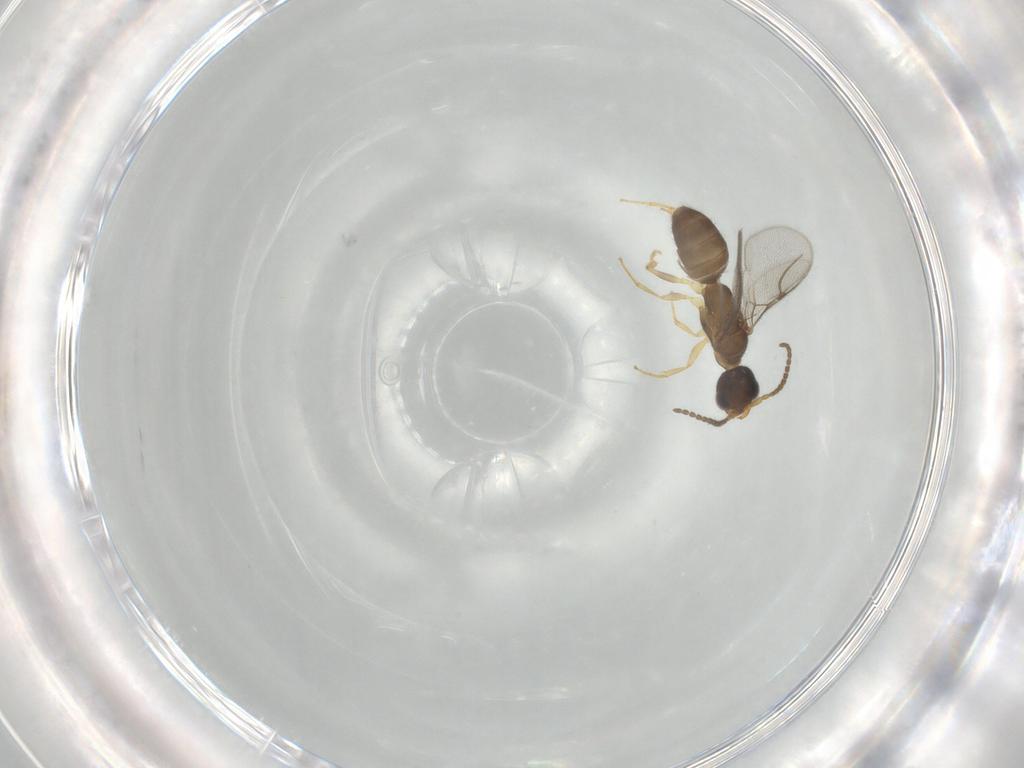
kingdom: Animalia
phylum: Arthropoda
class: Insecta
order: Hymenoptera
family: Bethylidae
